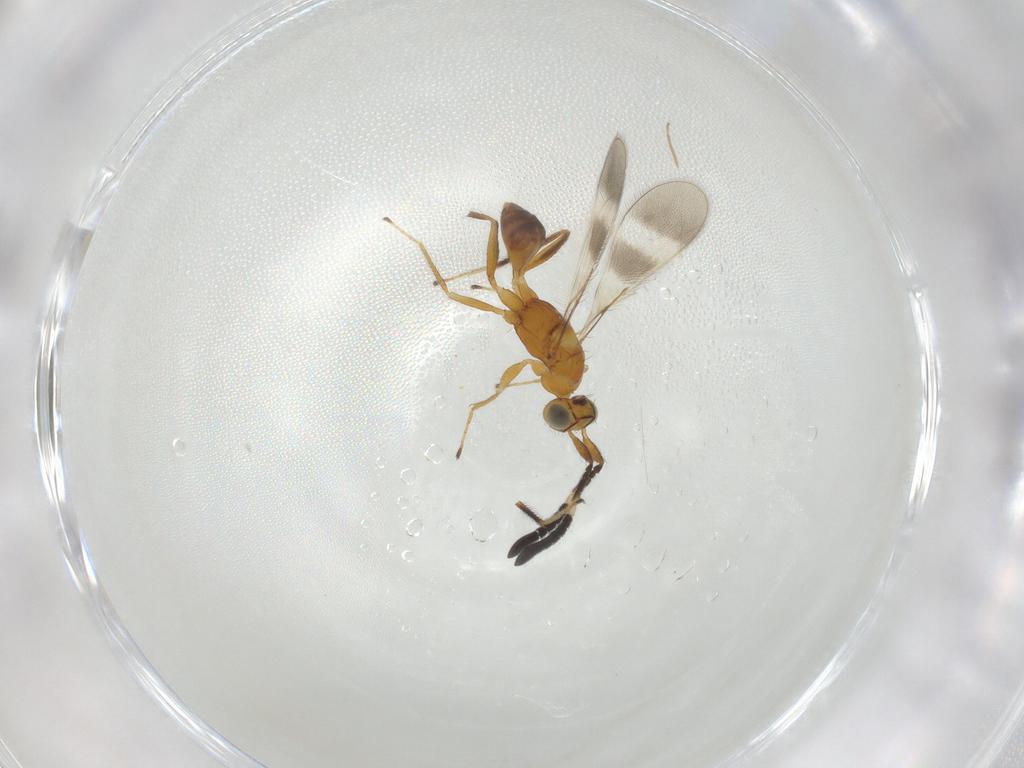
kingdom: Animalia
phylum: Arthropoda
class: Insecta
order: Hymenoptera
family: Mymaridae
